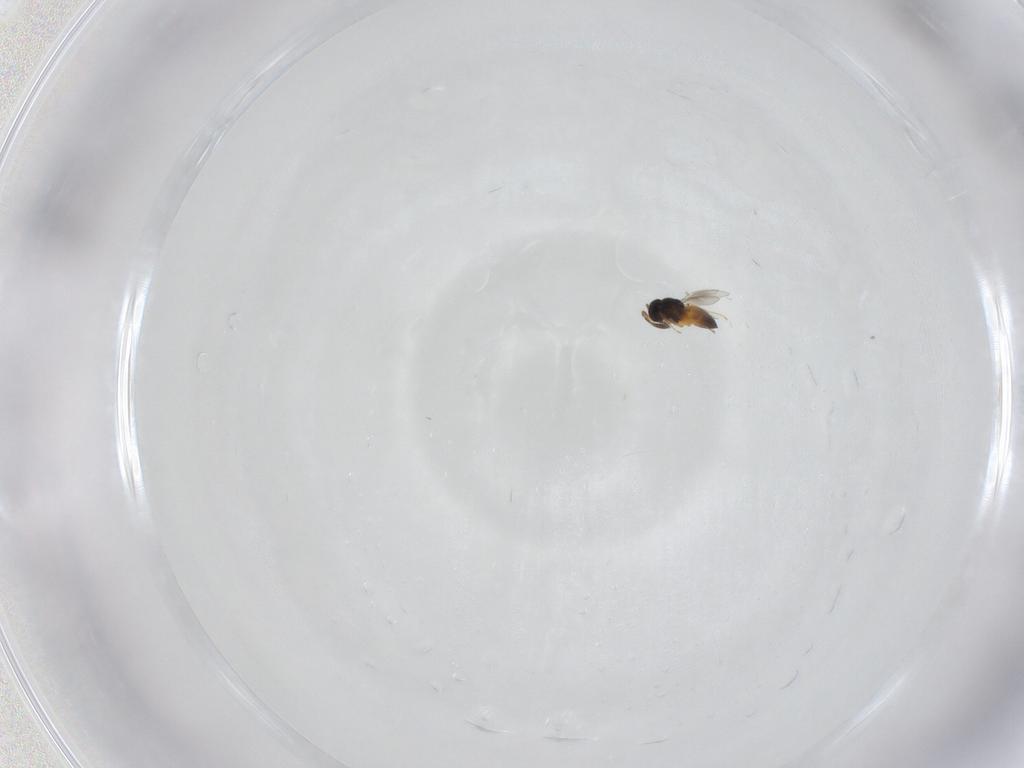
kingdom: Animalia
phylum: Arthropoda
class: Insecta
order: Hymenoptera
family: Scelionidae
